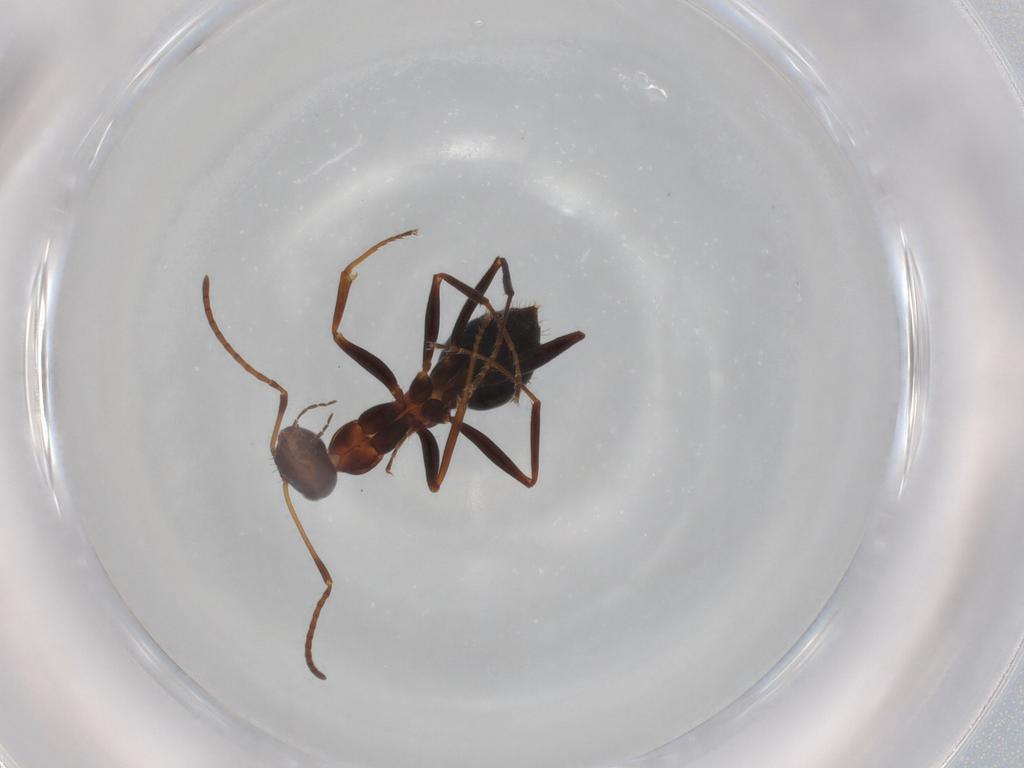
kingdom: Animalia
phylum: Arthropoda
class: Insecta
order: Hymenoptera
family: Formicidae
